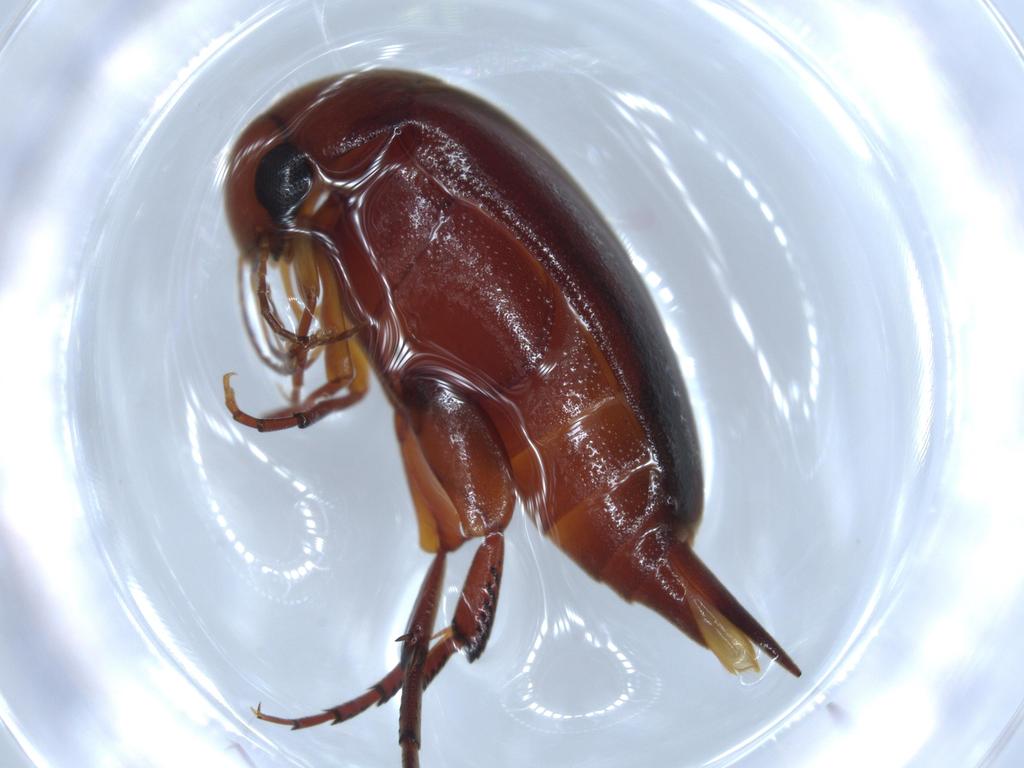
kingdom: Animalia
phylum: Arthropoda
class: Insecta
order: Coleoptera
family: Mordellidae
